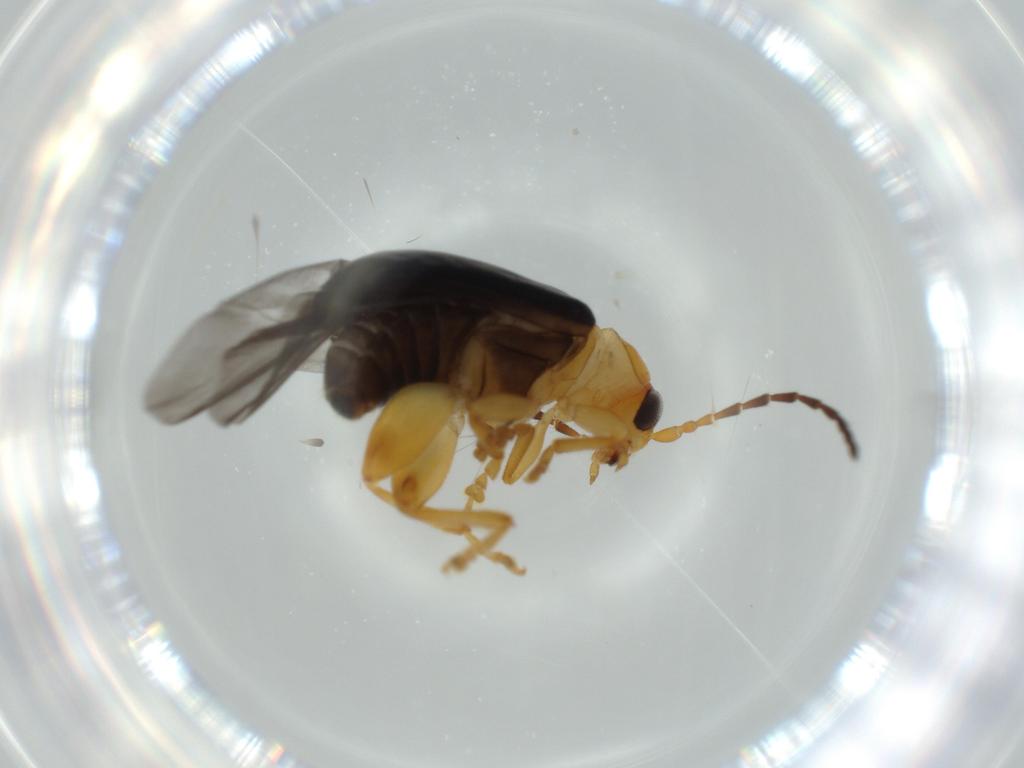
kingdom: Animalia
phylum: Arthropoda
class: Insecta
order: Coleoptera
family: Chrysomelidae
